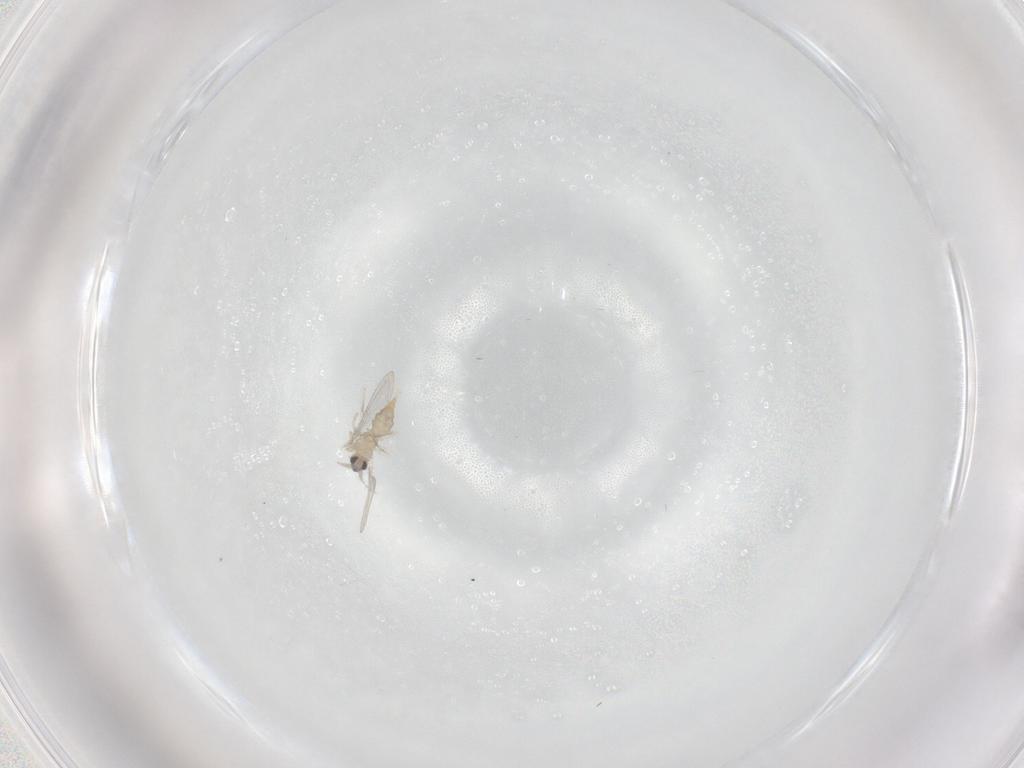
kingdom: Animalia
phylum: Arthropoda
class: Insecta
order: Diptera
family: Cecidomyiidae
